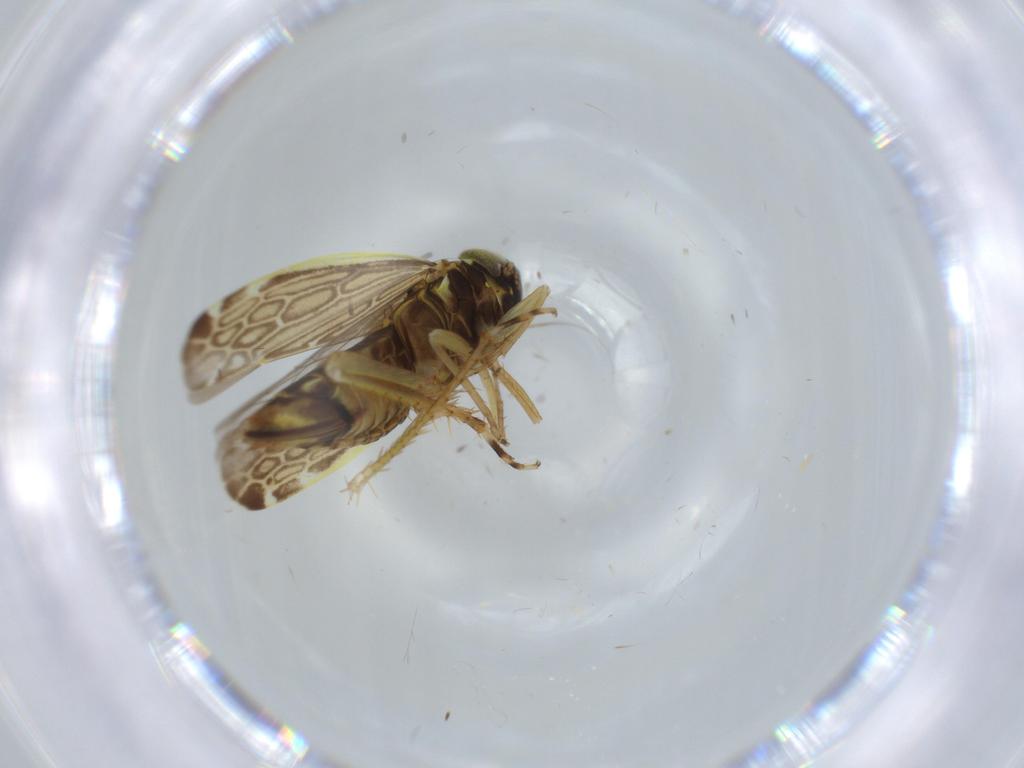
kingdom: Animalia
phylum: Arthropoda
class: Insecta
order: Hemiptera
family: Cicadellidae
